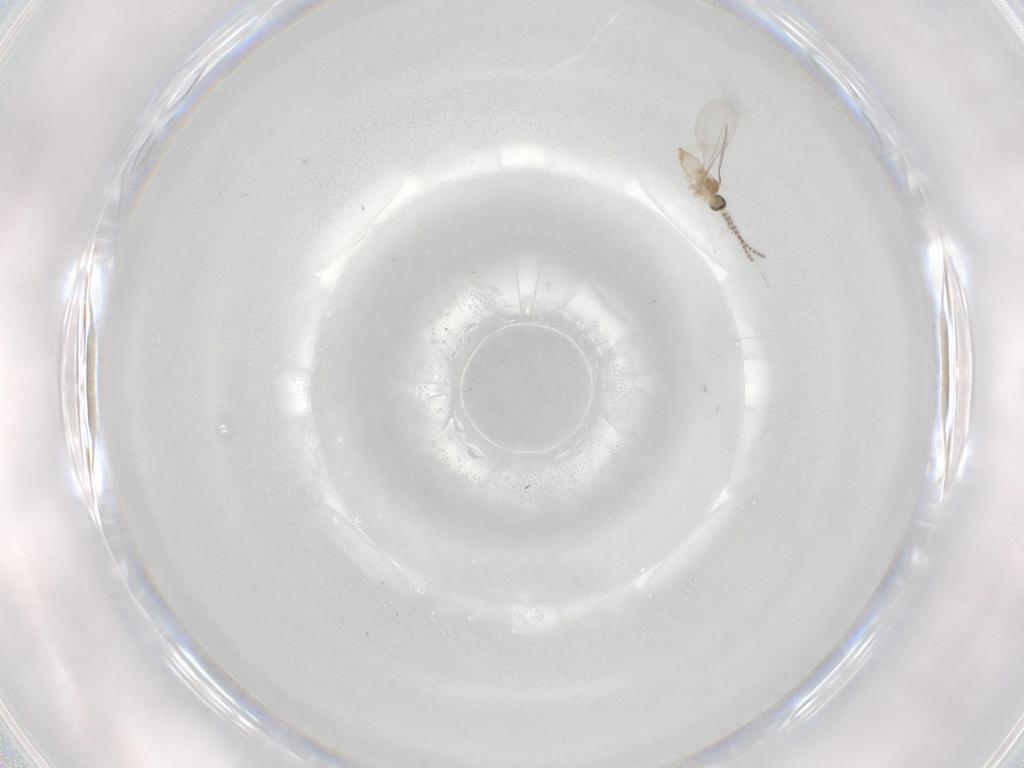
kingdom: Animalia
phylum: Arthropoda
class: Insecta
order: Diptera
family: Cecidomyiidae
